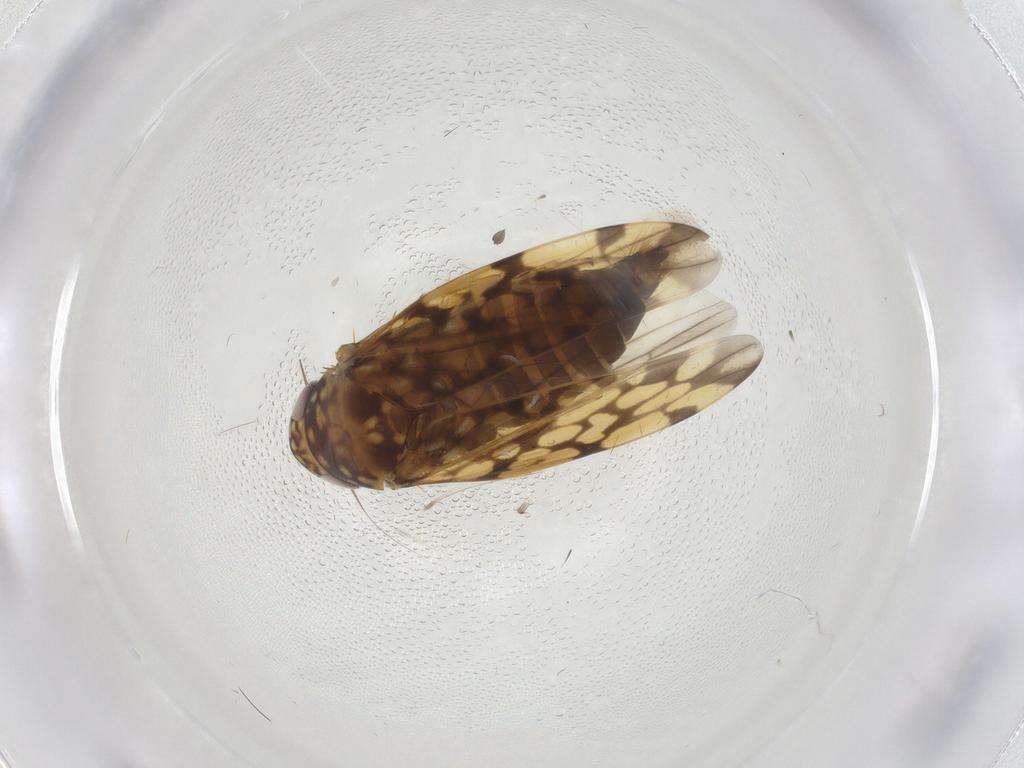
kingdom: Animalia
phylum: Arthropoda
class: Insecta
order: Hemiptera
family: Cicadellidae
